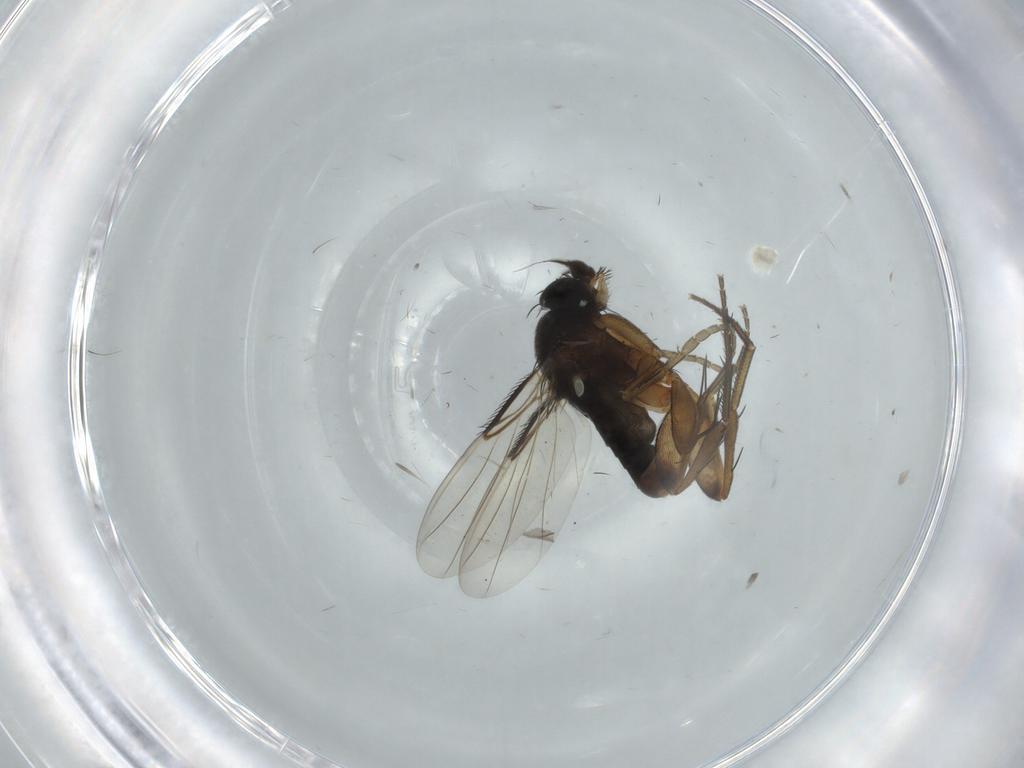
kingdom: Animalia
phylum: Arthropoda
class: Insecta
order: Diptera
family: Phoridae
